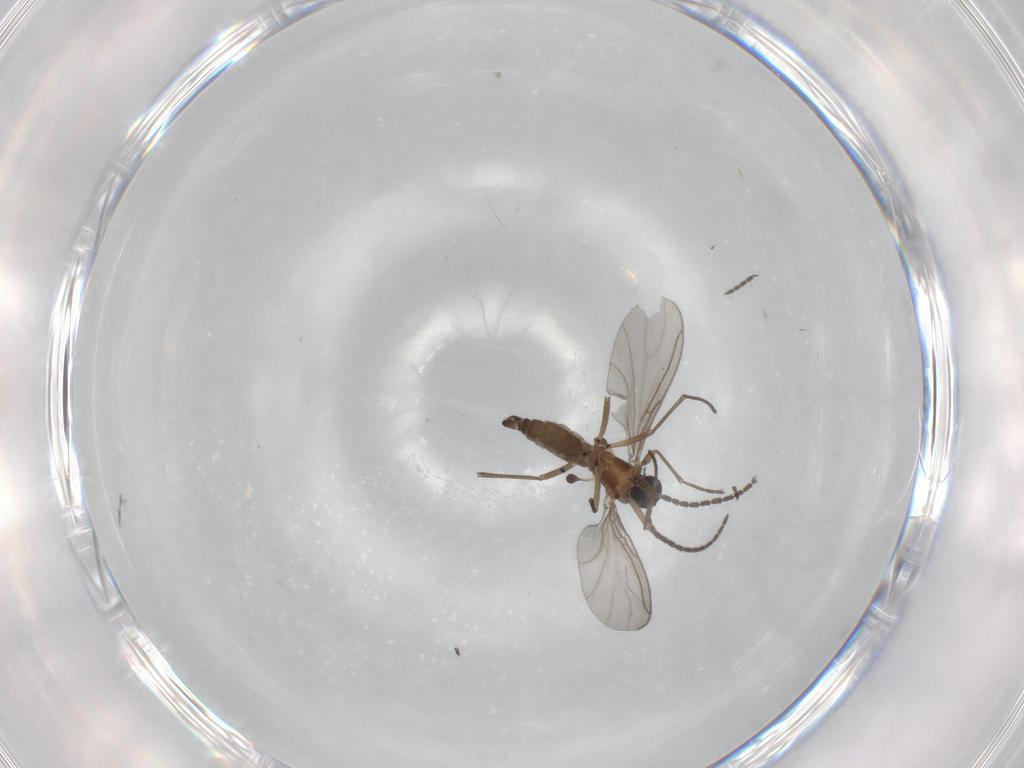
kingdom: Animalia
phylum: Arthropoda
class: Insecta
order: Diptera
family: Sciaridae
